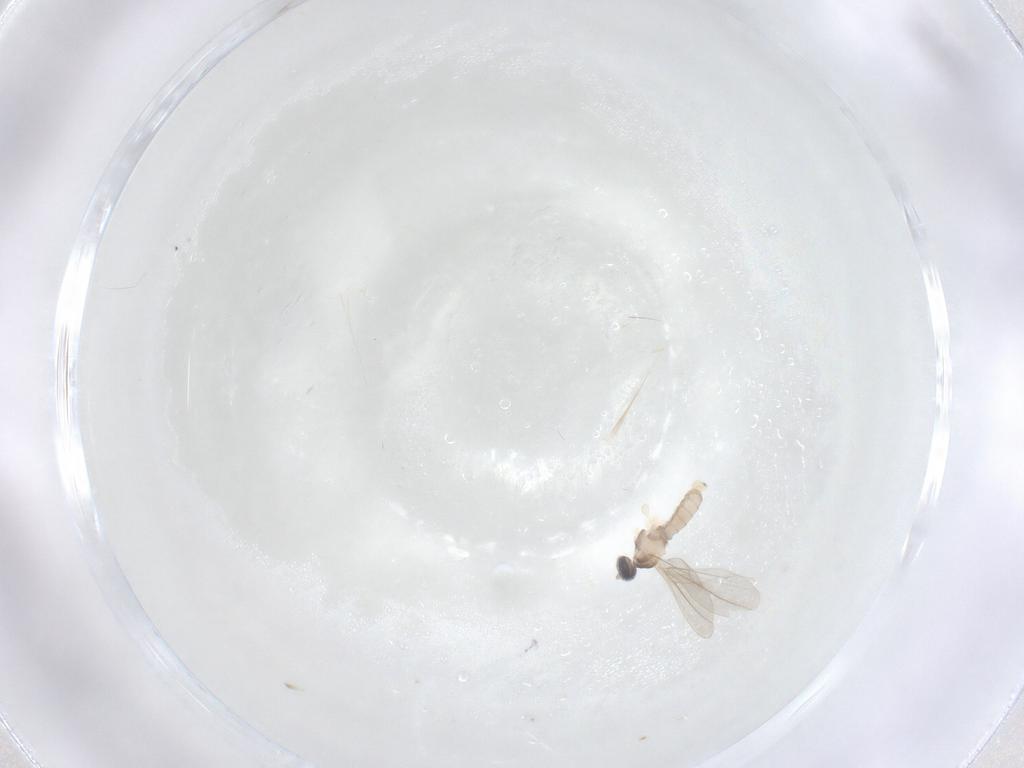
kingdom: Animalia
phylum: Arthropoda
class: Insecta
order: Diptera
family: Cecidomyiidae
